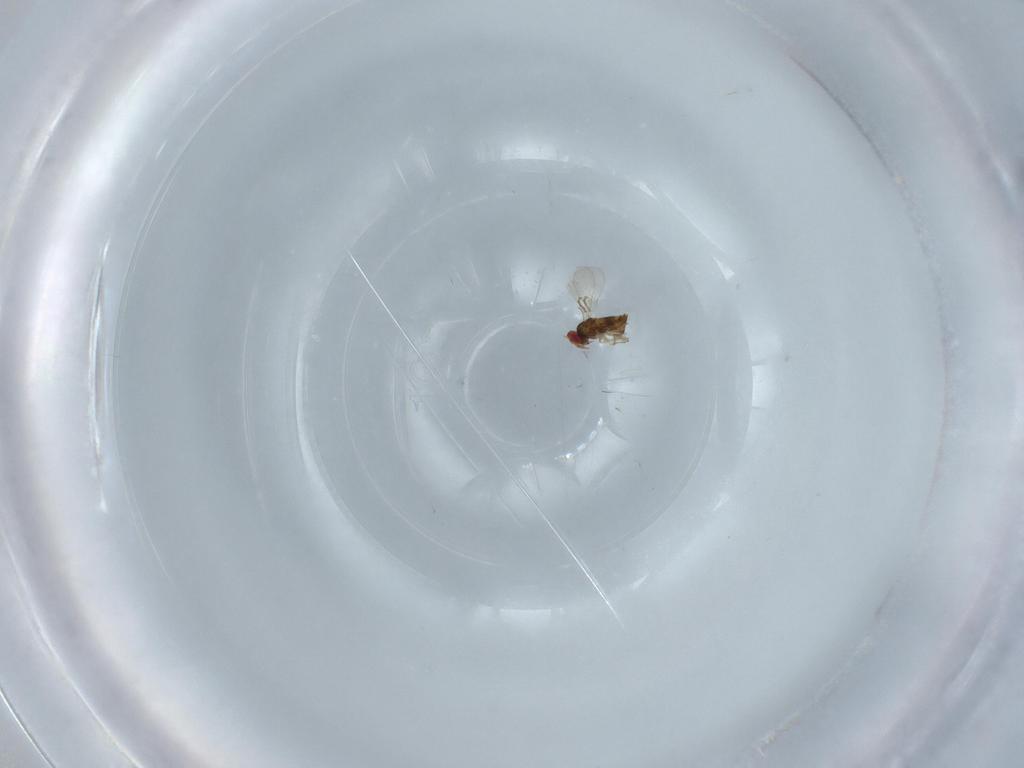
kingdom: Animalia
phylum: Arthropoda
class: Insecta
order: Hymenoptera
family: Trichogrammatidae
